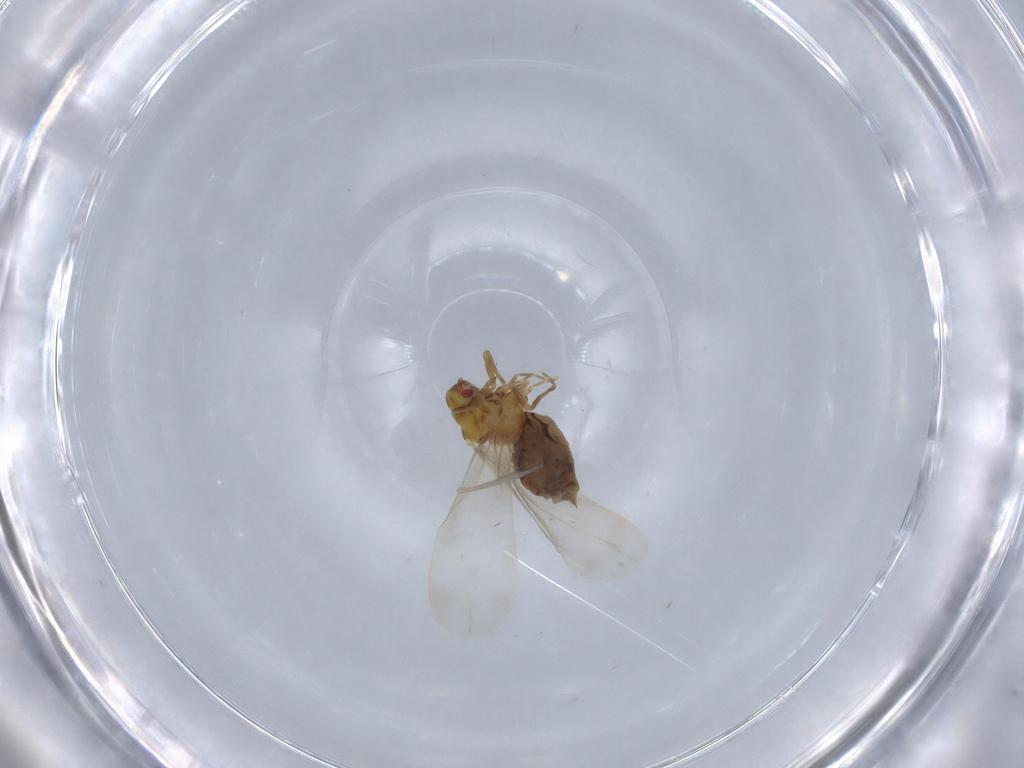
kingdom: Animalia
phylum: Arthropoda
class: Insecta
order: Hemiptera
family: Aleyrodidae
